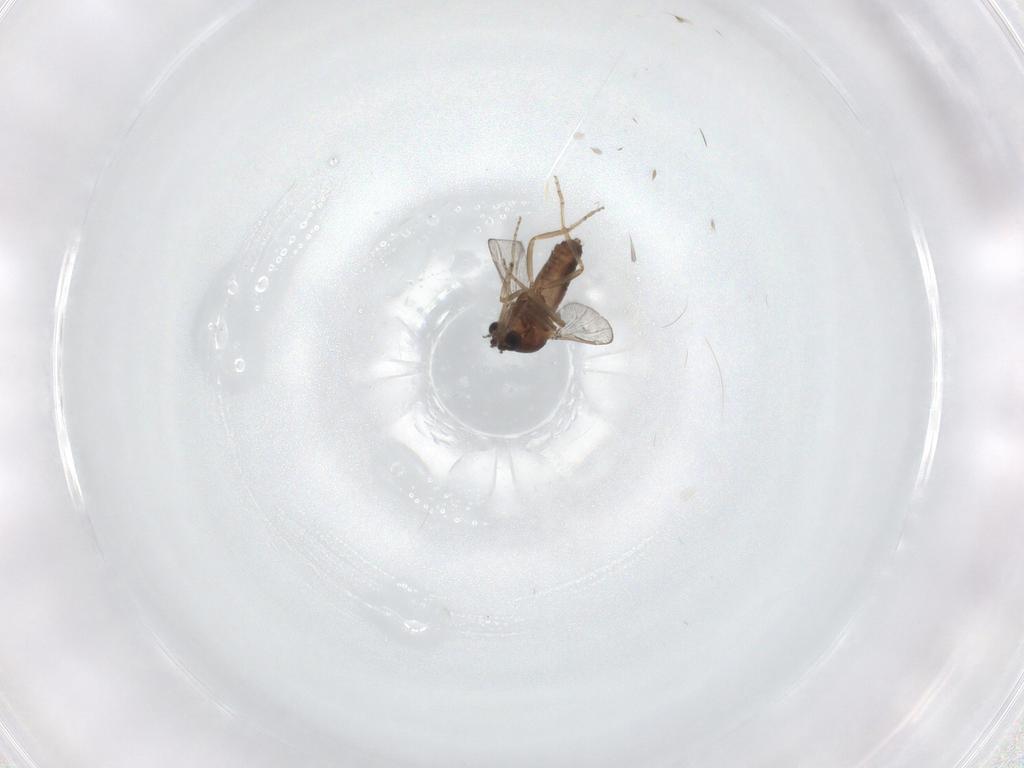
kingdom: Animalia
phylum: Arthropoda
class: Insecta
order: Diptera
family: Ceratopogonidae
